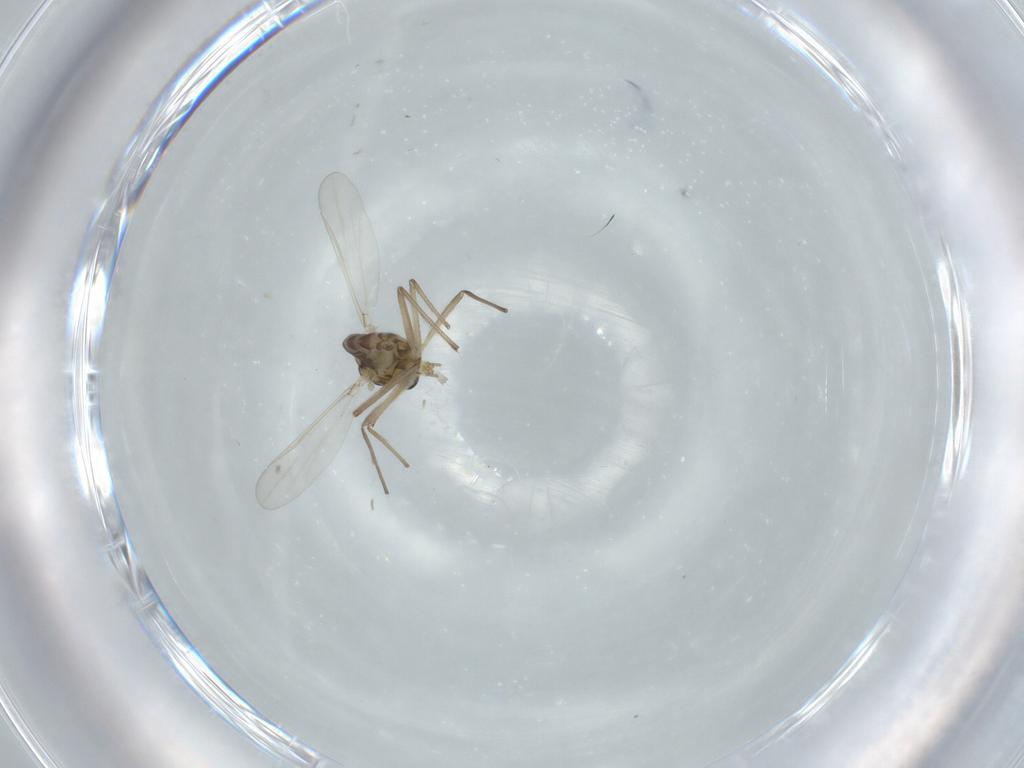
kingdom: Animalia
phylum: Arthropoda
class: Insecta
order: Diptera
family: Chironomidae
